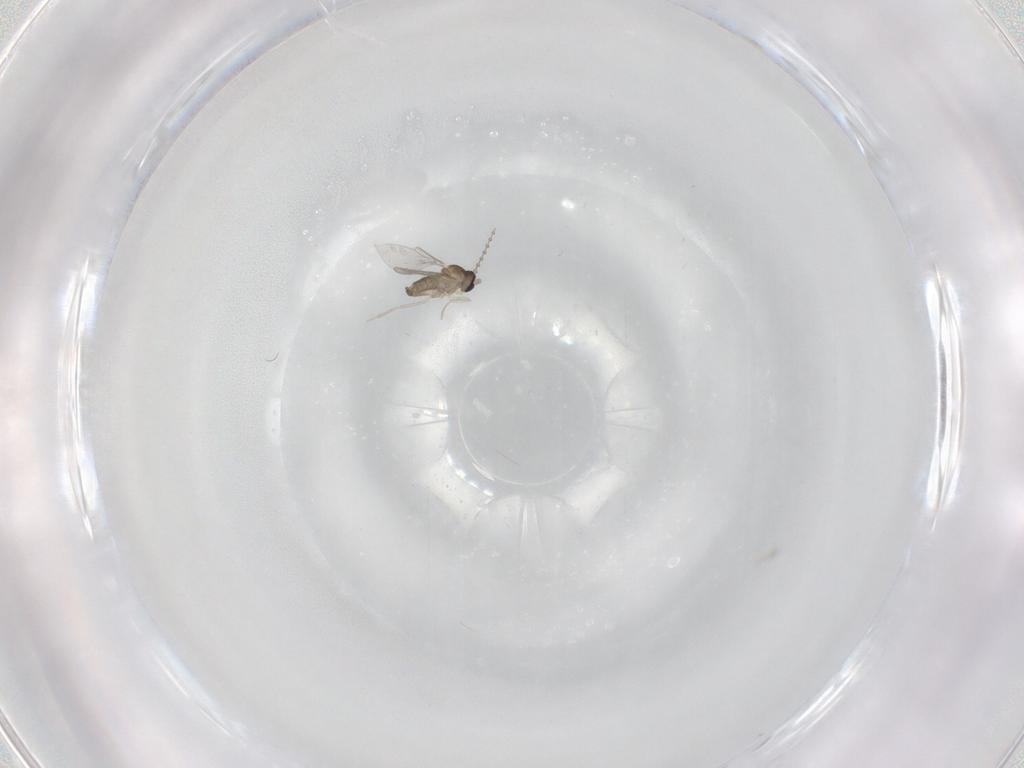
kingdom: Animalia
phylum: Arthropoda
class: Insecta
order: Diptera
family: Cecidomyiidae
